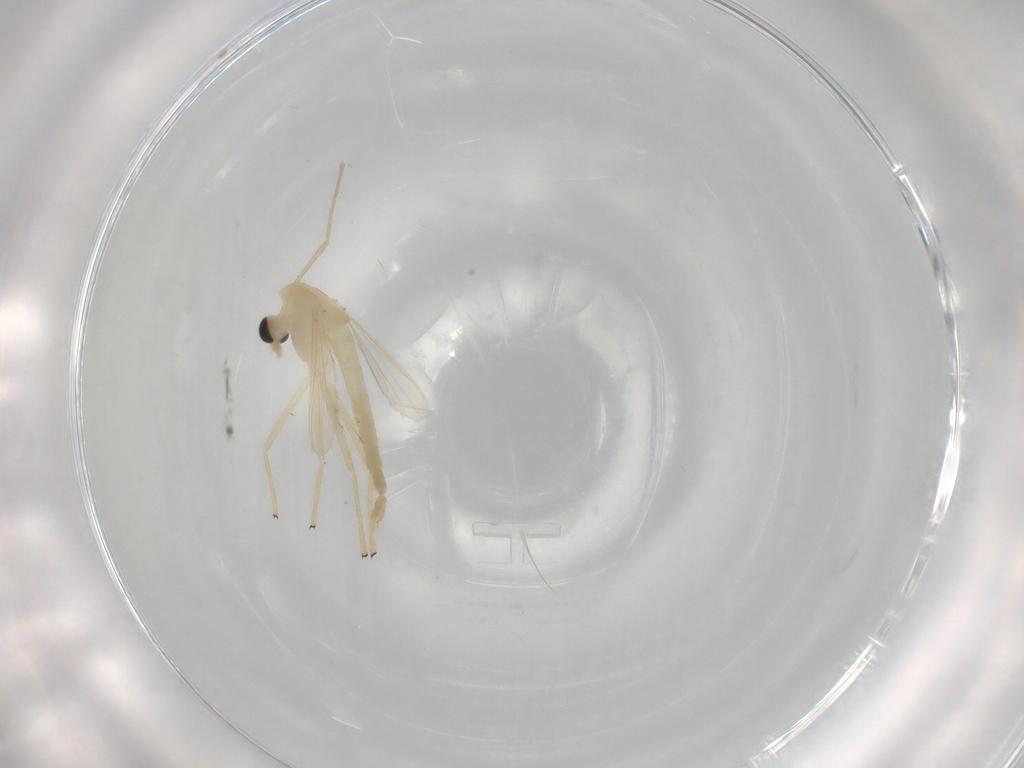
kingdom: Animalia
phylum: Arthropoda
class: Insecta
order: Diptera
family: Chironomidae
